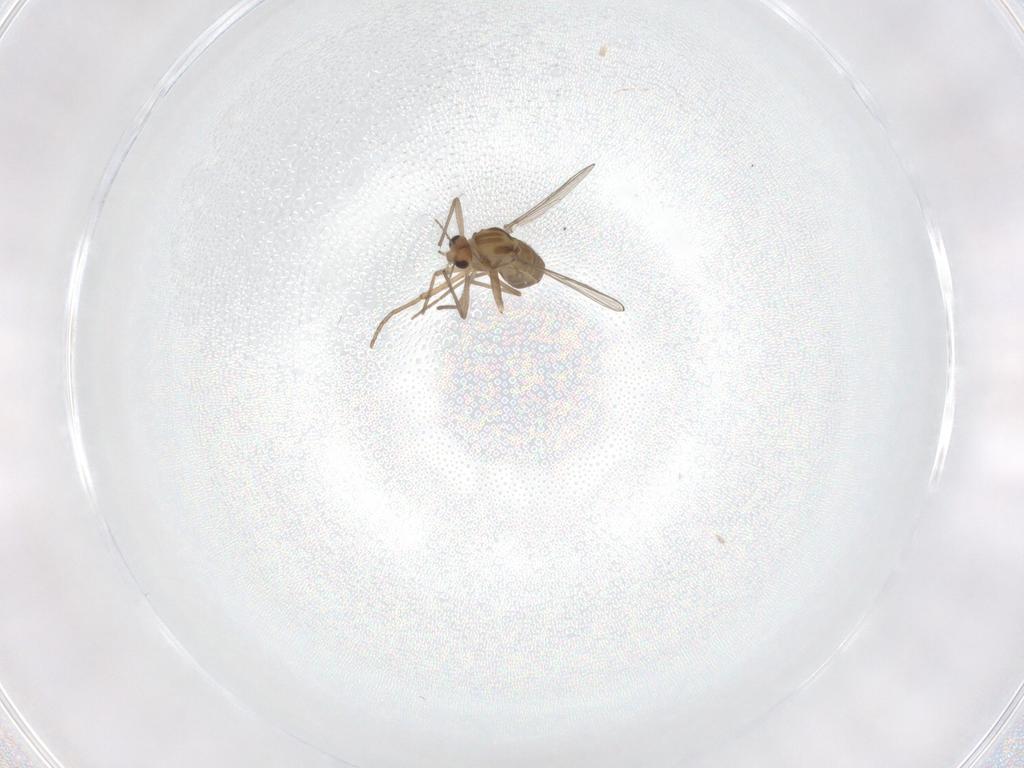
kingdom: Animalia
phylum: Arthropoda
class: Insecta
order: Diptera
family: Chironomidae
